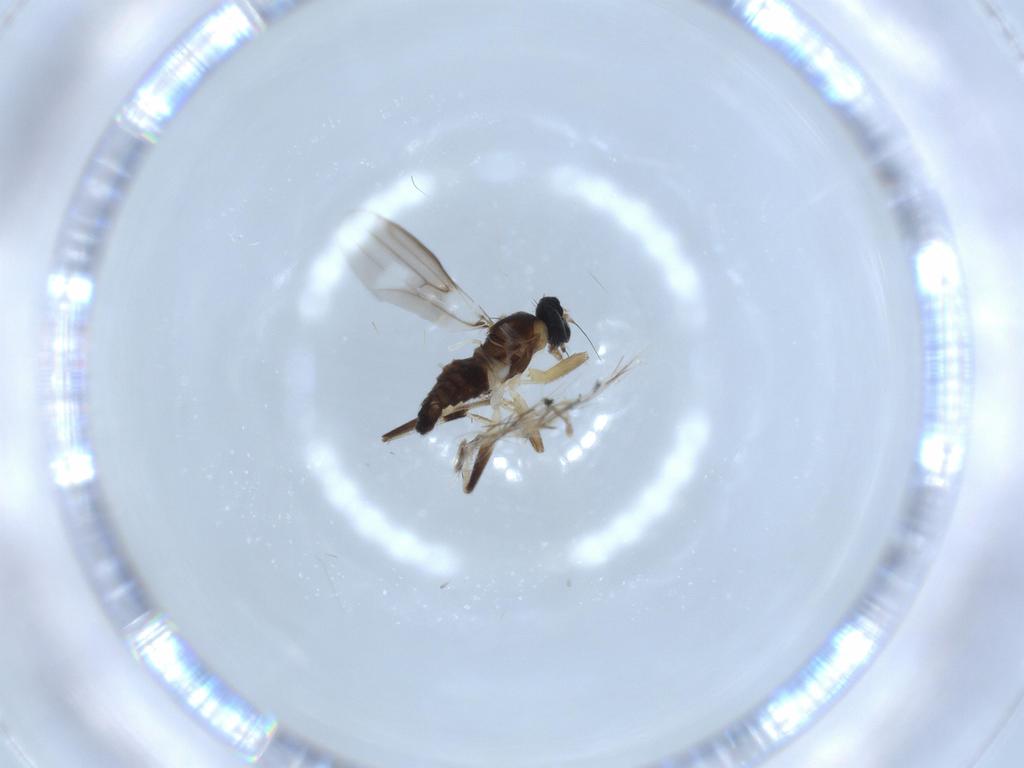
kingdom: Animalia
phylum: Arthropoda
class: Insecta
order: Diptera
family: Hybotidae
